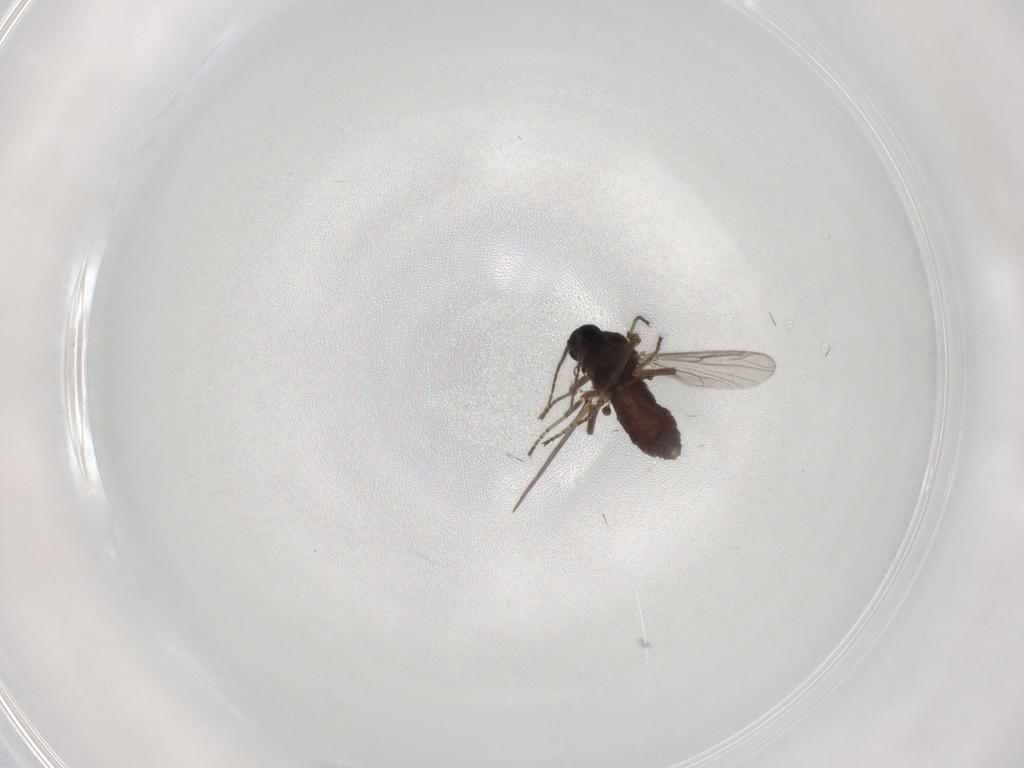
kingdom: Animalia
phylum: Arthropoda
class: Insecta
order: Diptera
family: Ceratopogonidae
